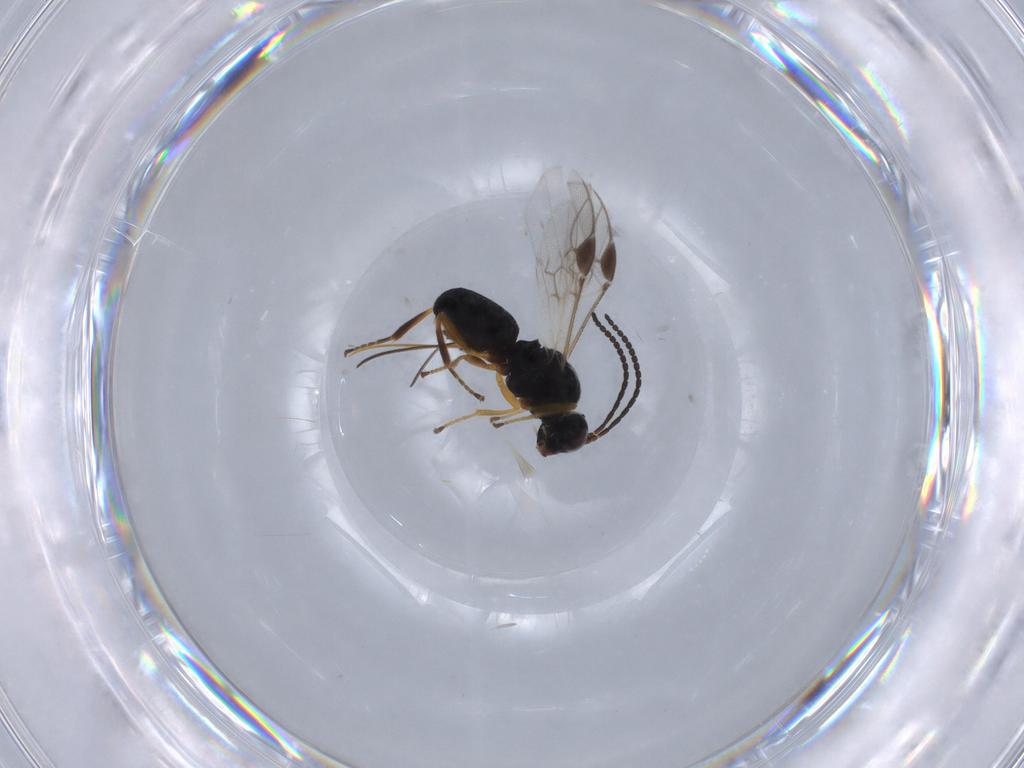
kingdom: Animalia
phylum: Arthropoda
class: Insecta
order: Hymenoptera
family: Braconidae
